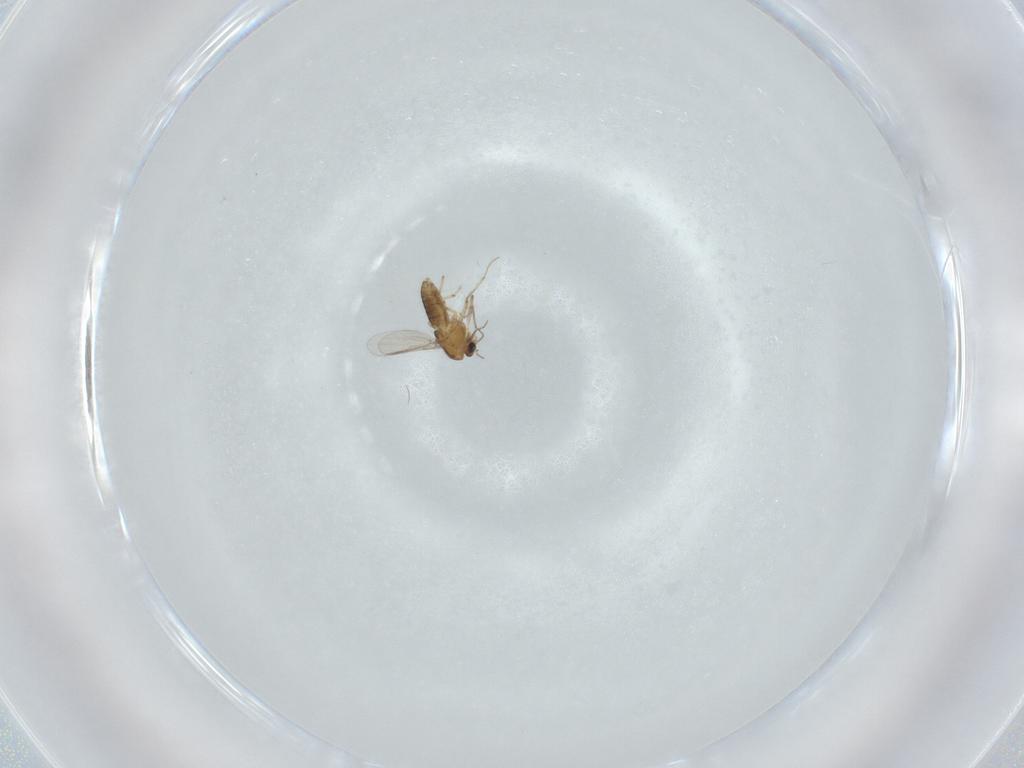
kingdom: Animalia
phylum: Arthropoda
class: Insecta
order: Diptera
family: Chironomidae
